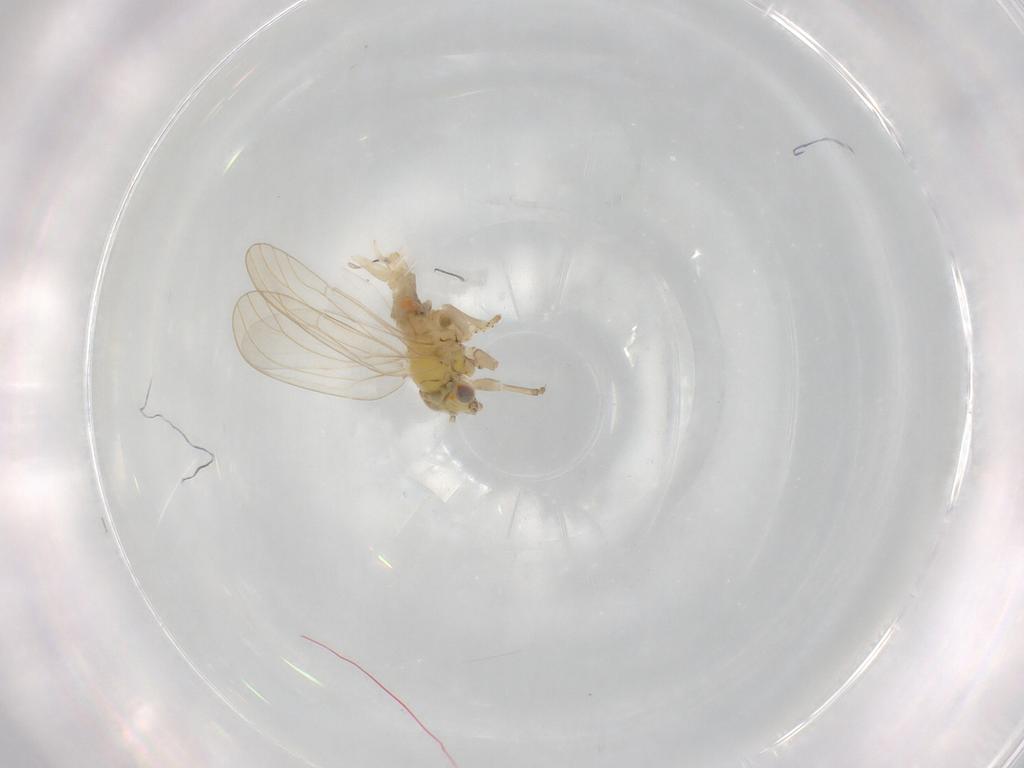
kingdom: Animalia
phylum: Arthropoda
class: Insecta
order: Hemiptera
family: Aphalaridae
